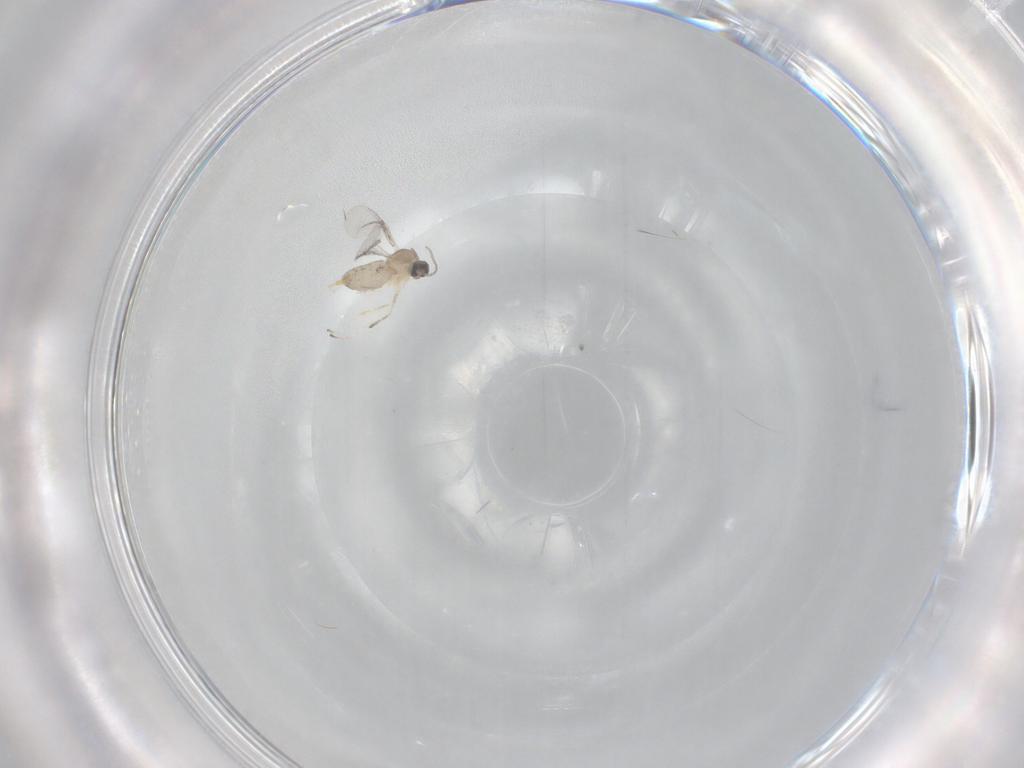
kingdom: Animalia
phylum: Arthropoda
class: Insecta
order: Diptera
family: Cecidomyiidae
